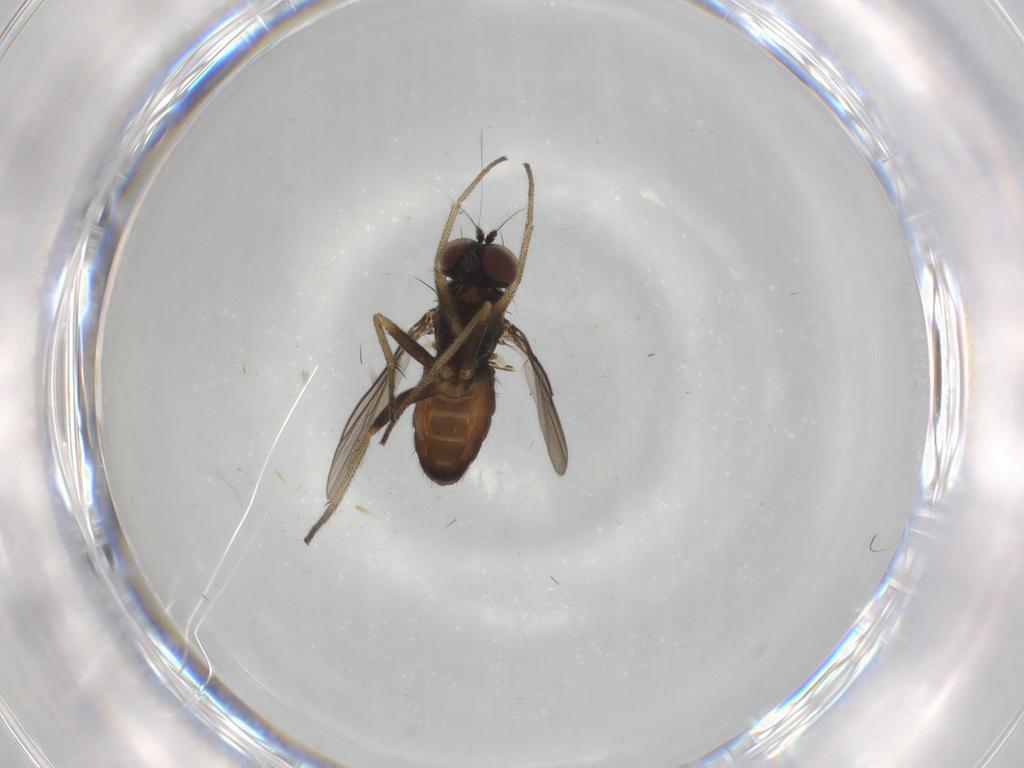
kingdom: Animalia
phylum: Arthropoda
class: Insecta
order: Diptera
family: Dolichopodidae
